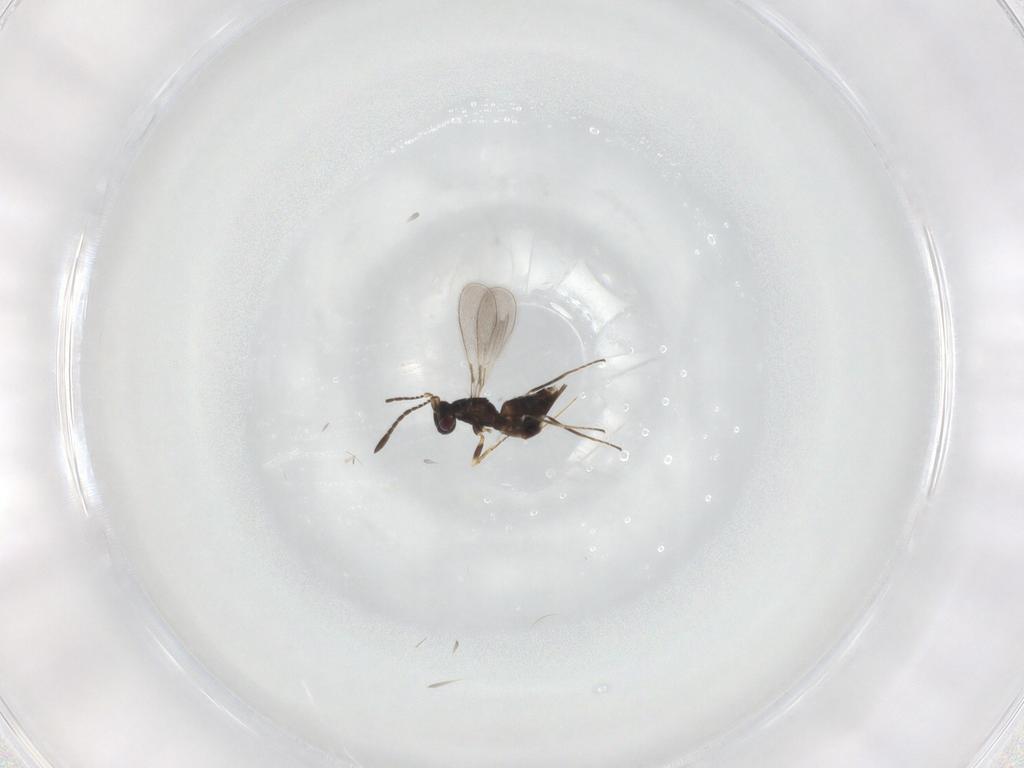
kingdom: Animalia
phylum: Arthropoda
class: Insecta
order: Hymenoptera
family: Mymaridae
